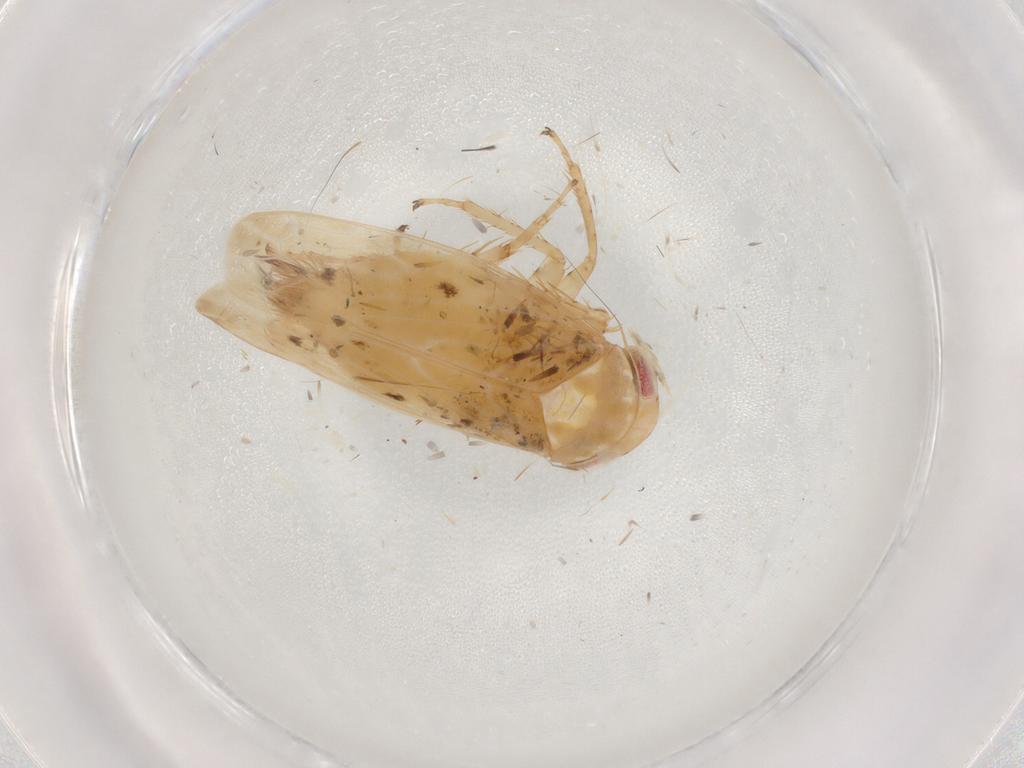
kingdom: Animalia
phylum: Arthropoda
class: Insecta
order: Hemiptera
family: Cicadellidae
